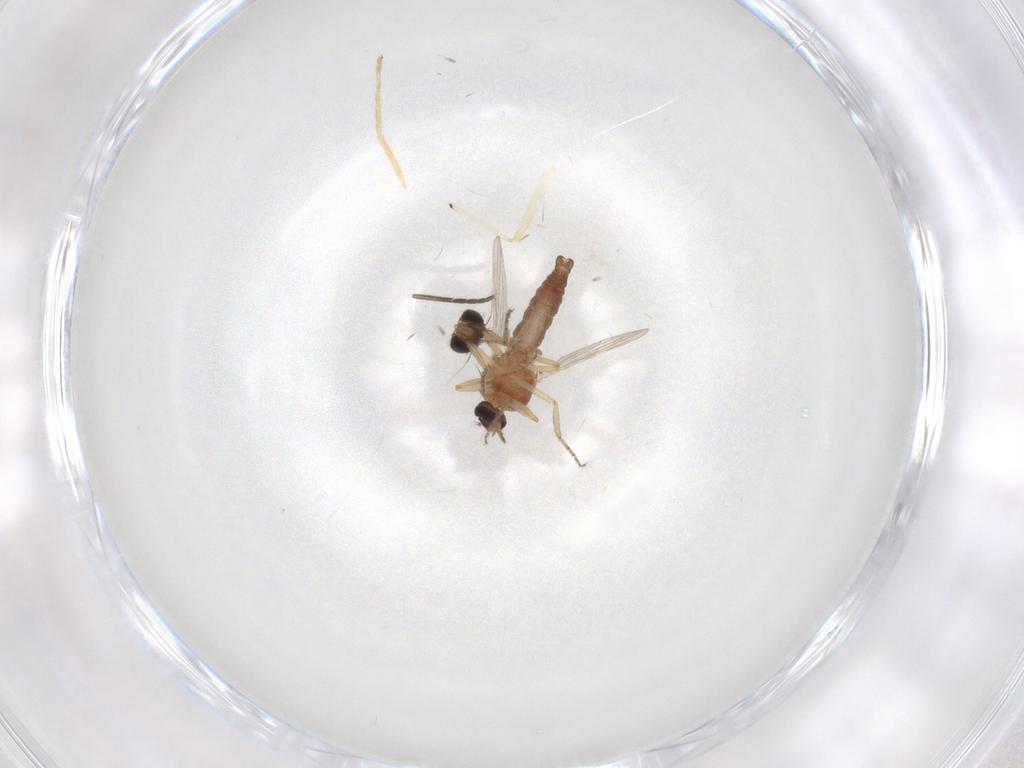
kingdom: Animalia
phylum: Arthropoda
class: Insecta
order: Diptera
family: Ceratopogonidae
